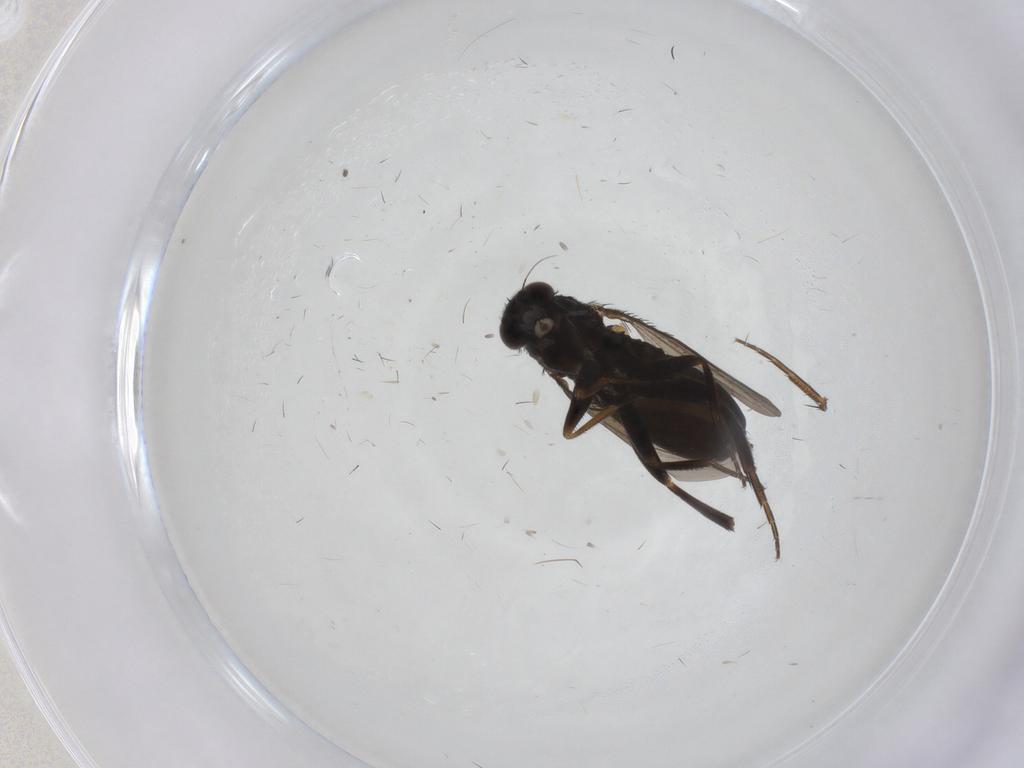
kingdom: Animalia
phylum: Arthropoda
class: Insecta
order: Diptera
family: Phoridae
